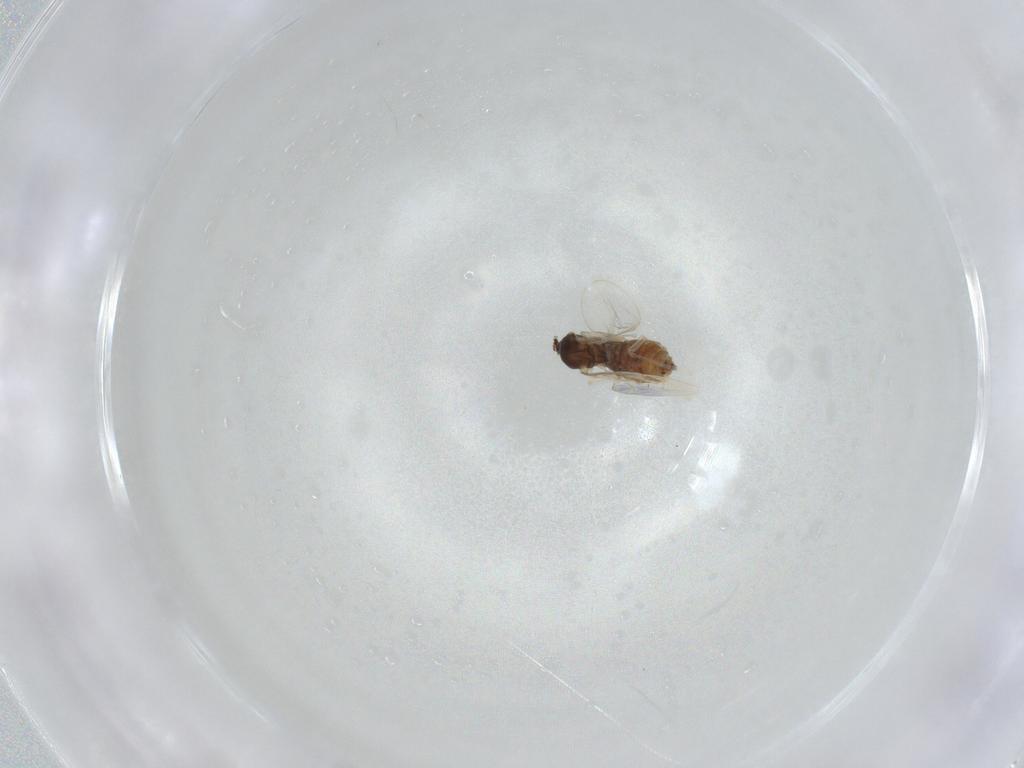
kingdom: Animalia
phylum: Arthropoda
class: Insecta
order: Diptera
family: Cecidomyiidae
